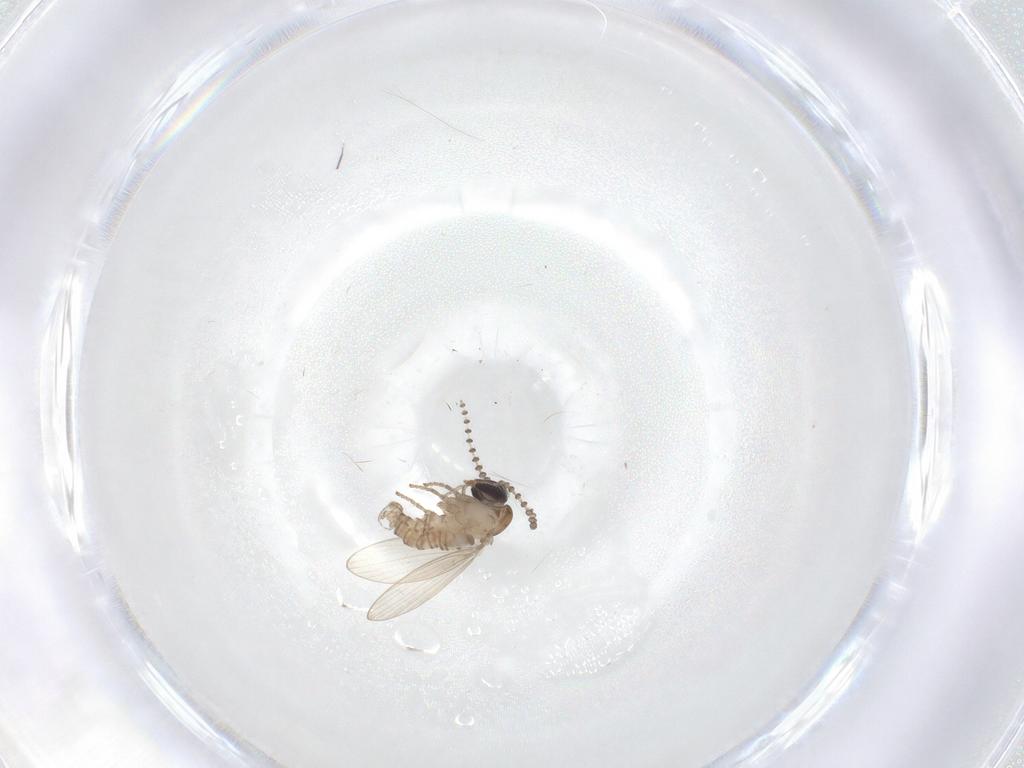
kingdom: Animalia
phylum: Arthropoda
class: Insecta
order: Diptera
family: Psychodidae
